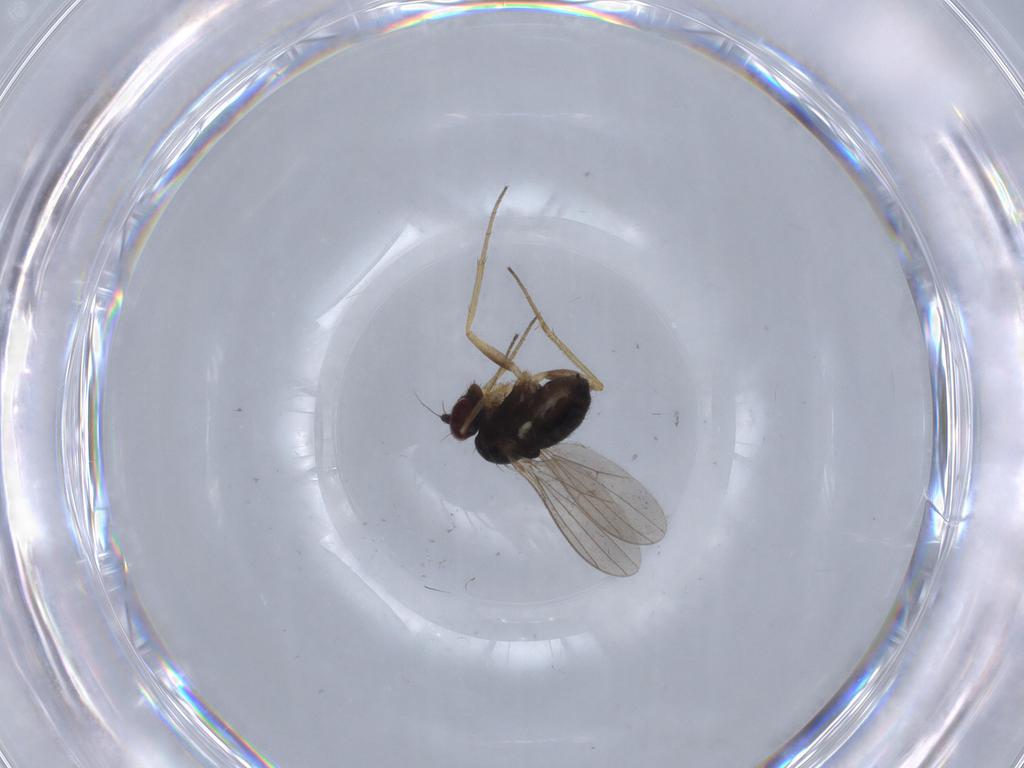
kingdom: Animalia
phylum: Arthropoda
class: Insecta
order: Diptera
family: Dolichopodidae
